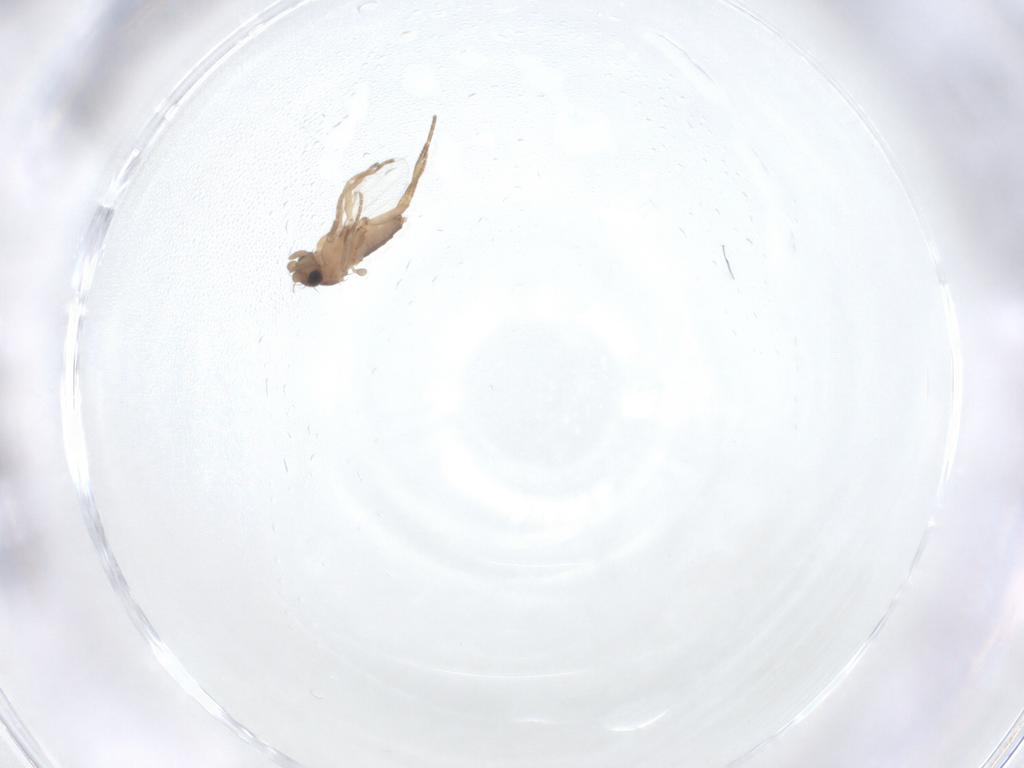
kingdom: Animalia
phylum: Arthropoda
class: Insecta
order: Diptera
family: Phoridae
